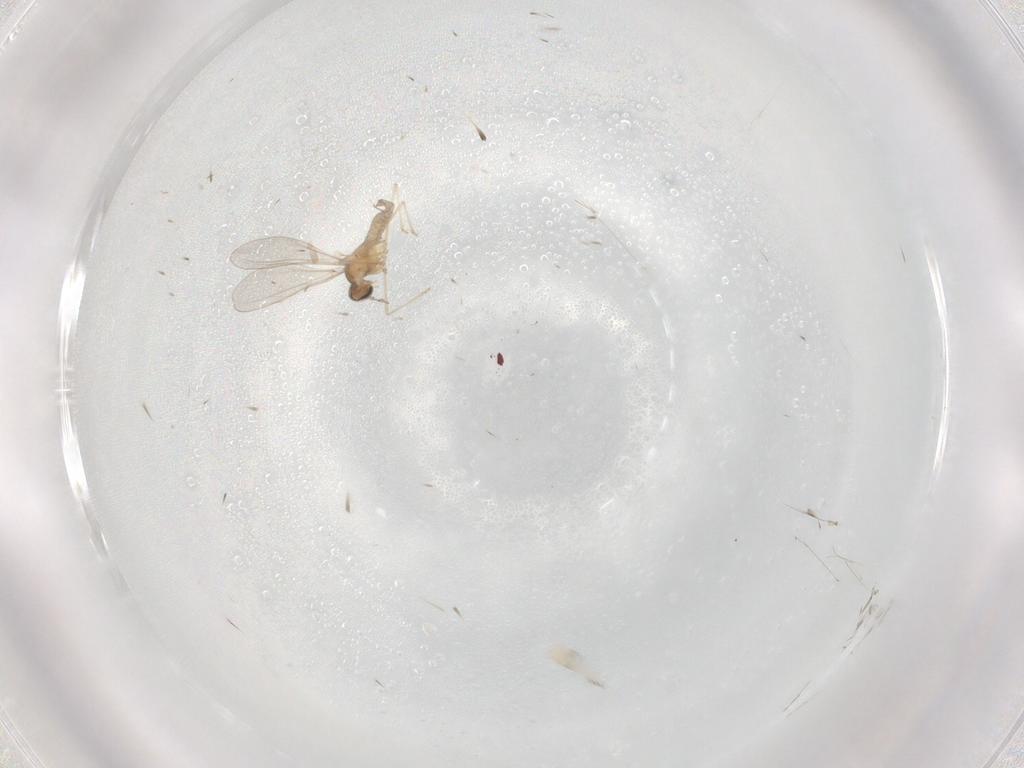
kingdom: Animalia
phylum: Arthropoda
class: Insecta
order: Diptera
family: Cecidomyiidae
